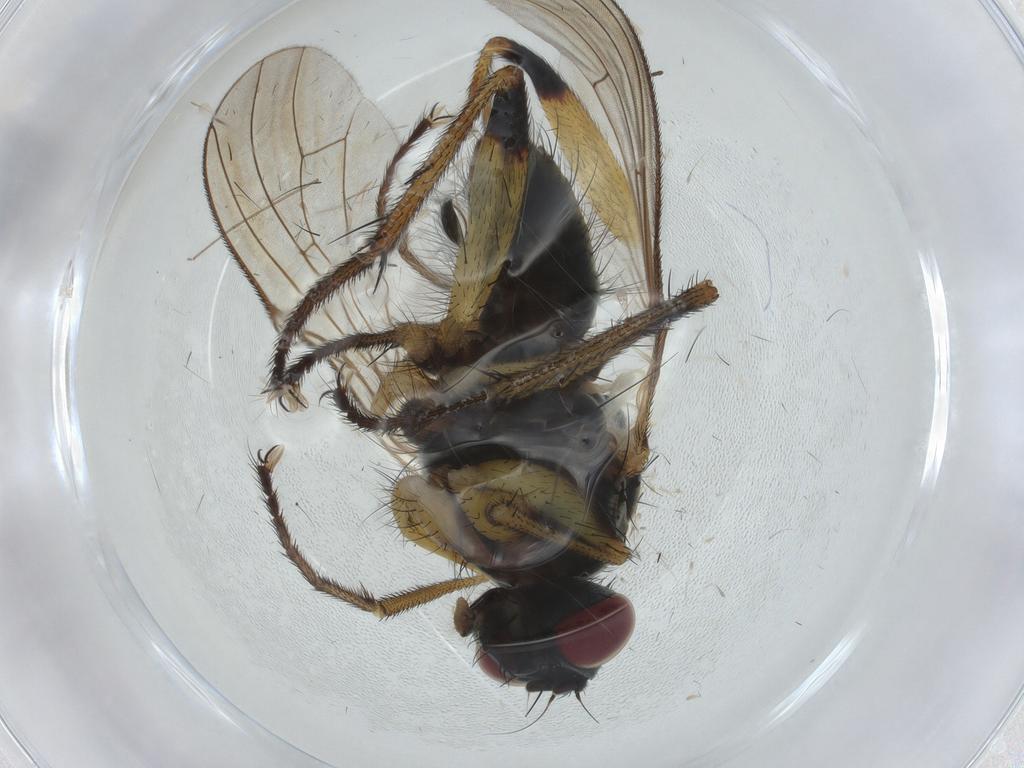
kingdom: Animalia
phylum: Arthropoda
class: Insecta
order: Diptera
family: Muscidae
